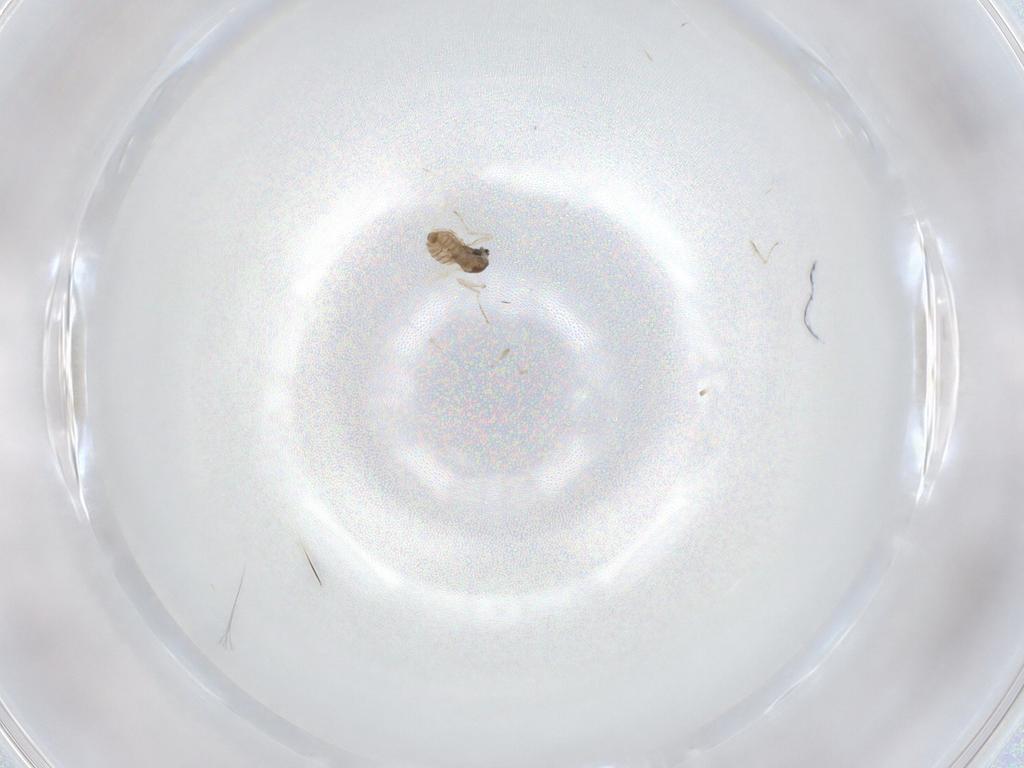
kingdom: Animalia
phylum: Arthropoda
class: Insecta
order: Diptera
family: Cecidomyiidae
